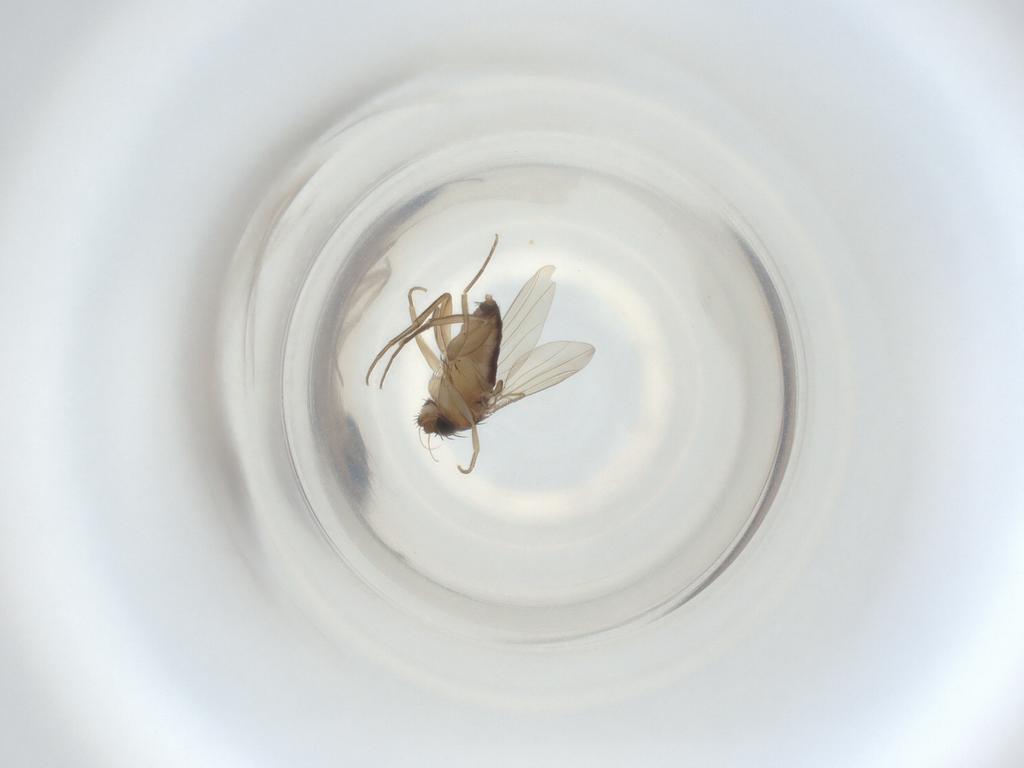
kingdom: Animalia
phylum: Arthropoda
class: Insecta
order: Diptera
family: Phoridae
